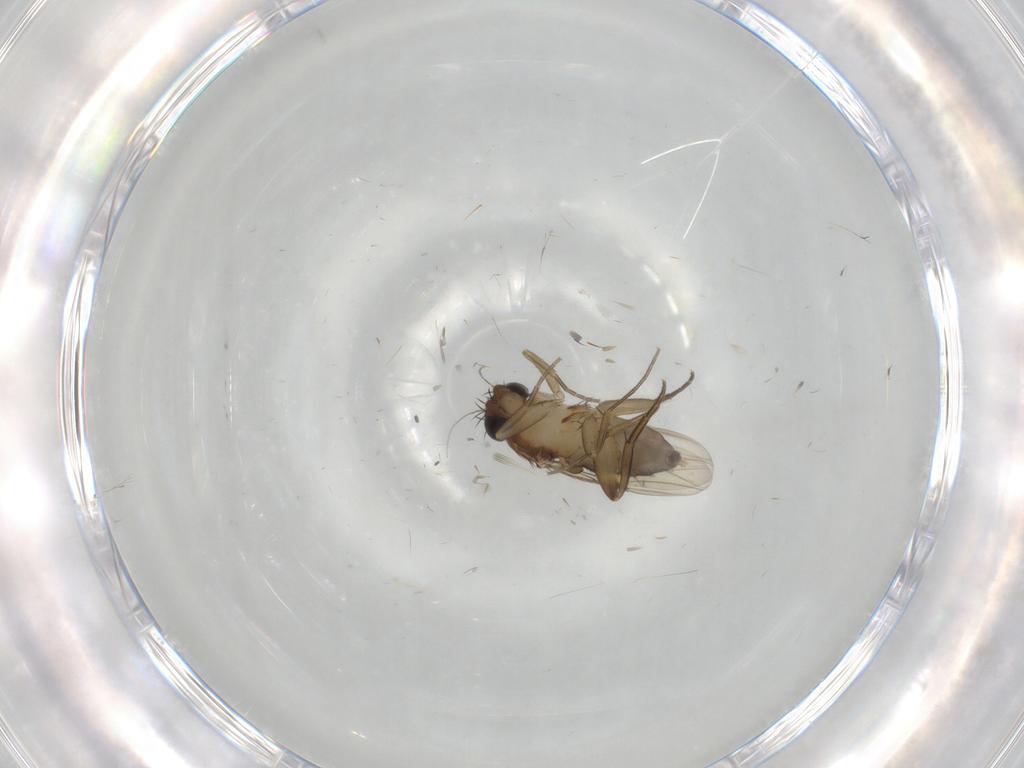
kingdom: Animalia
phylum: Arthropoda
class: Insecta
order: Diptera
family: Phoridae
